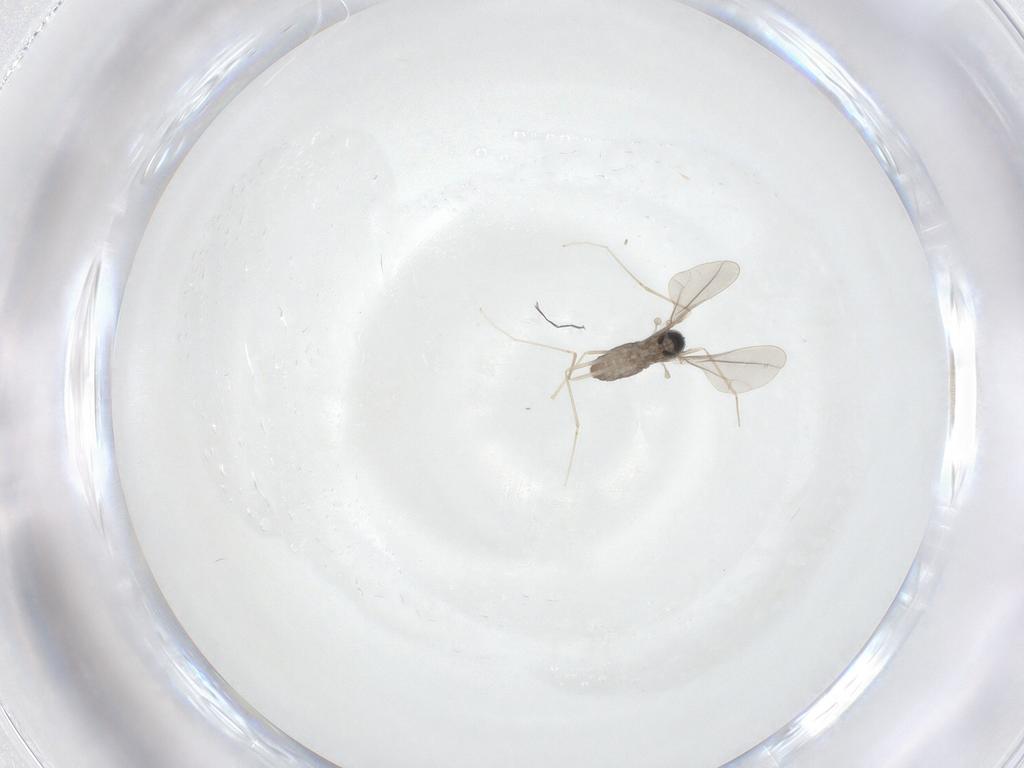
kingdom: Animalia
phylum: Arthropoda
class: Insecta
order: Diptera
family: Cecidomyiidae
